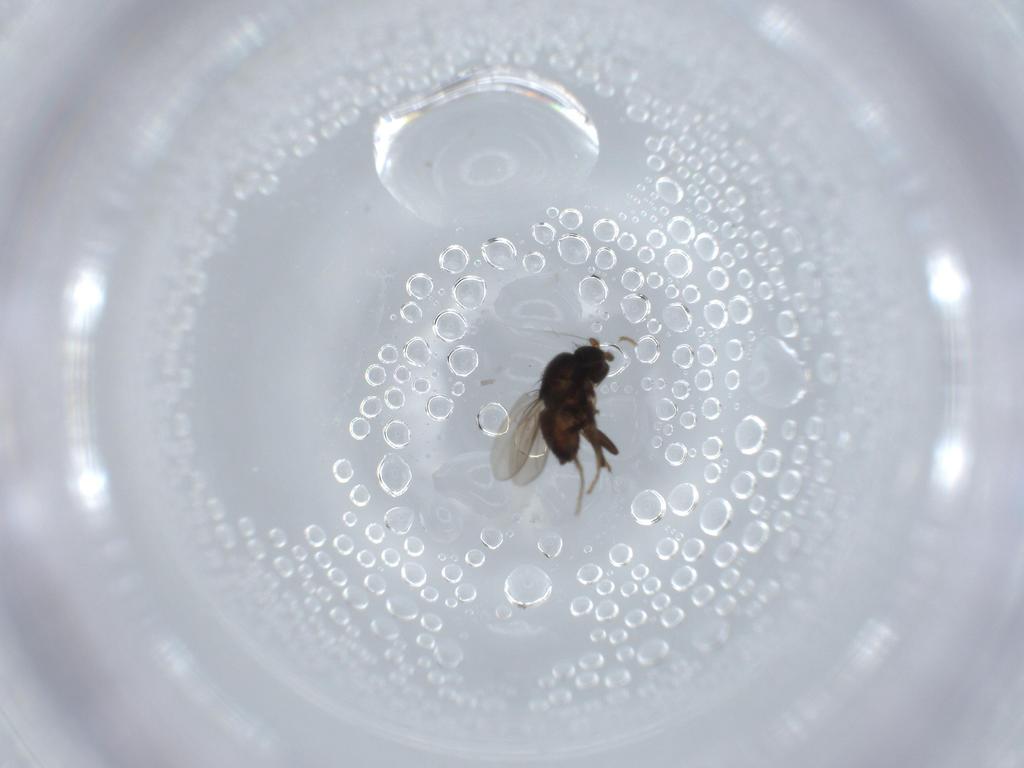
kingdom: Animalia
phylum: Arthropoda
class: Insecta
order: Diptera
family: Sphaeroceridae
